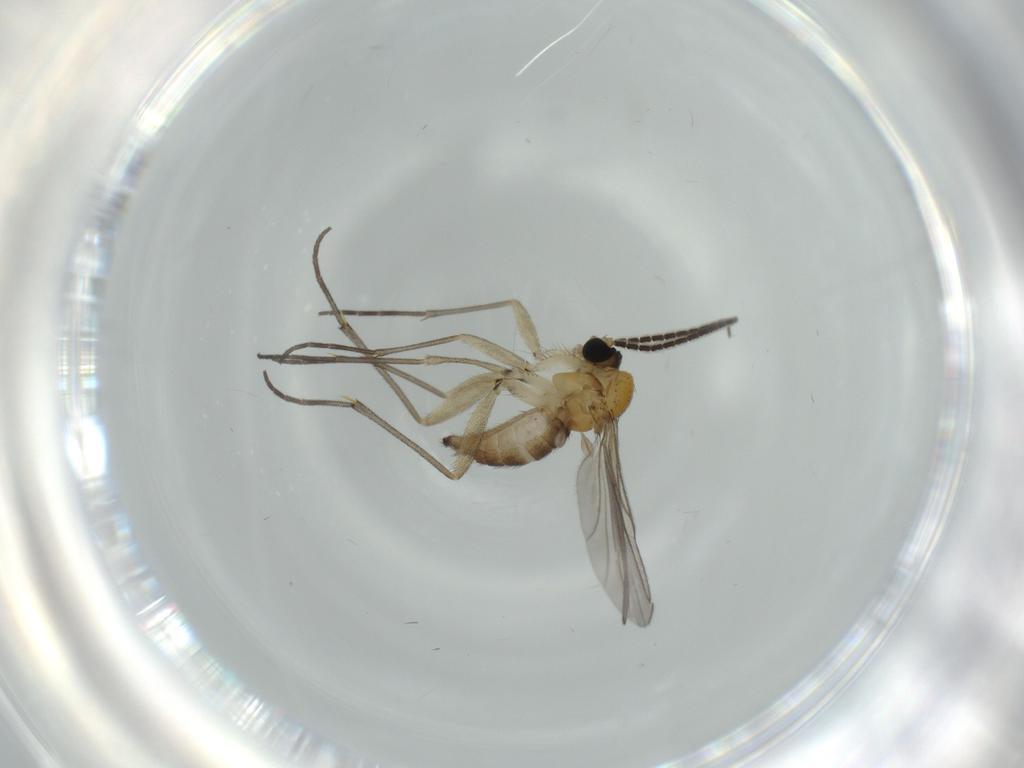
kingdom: Animalia
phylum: Arthropoda
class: Insecta
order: Diptera
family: Sciaridae
